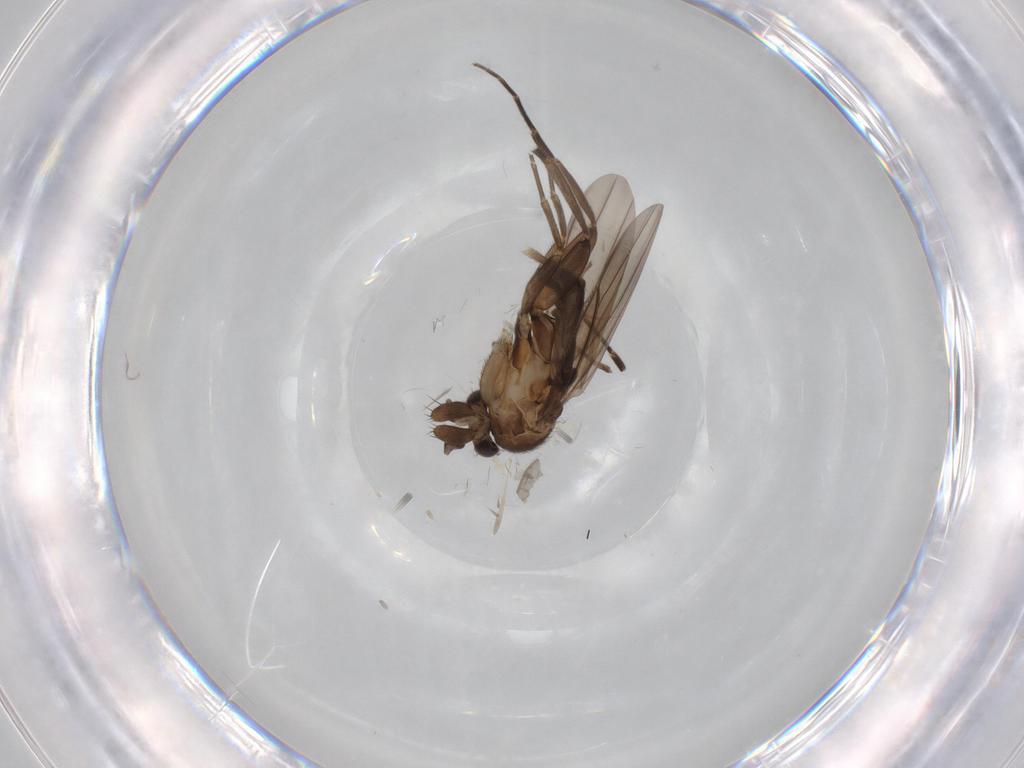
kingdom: Animalia
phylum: Arthropoda
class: Insecta
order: Diptera
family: Phoridae
